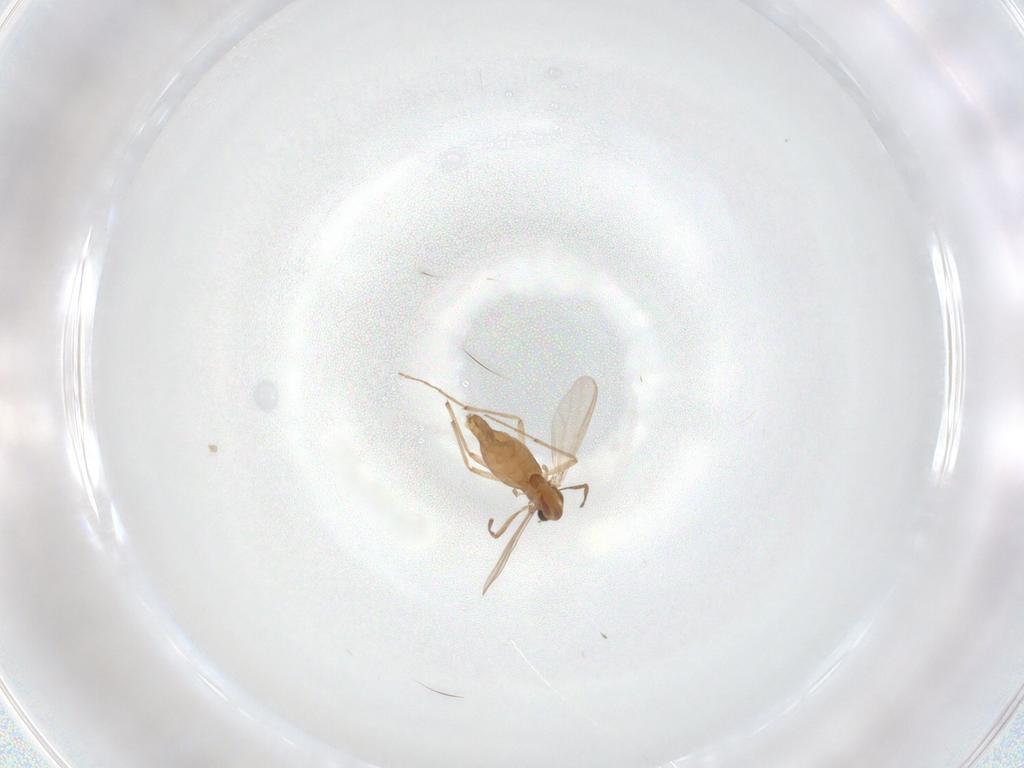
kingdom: Animalia
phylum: Arthropoda
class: Insecta
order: Diptera
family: Chironomidae
